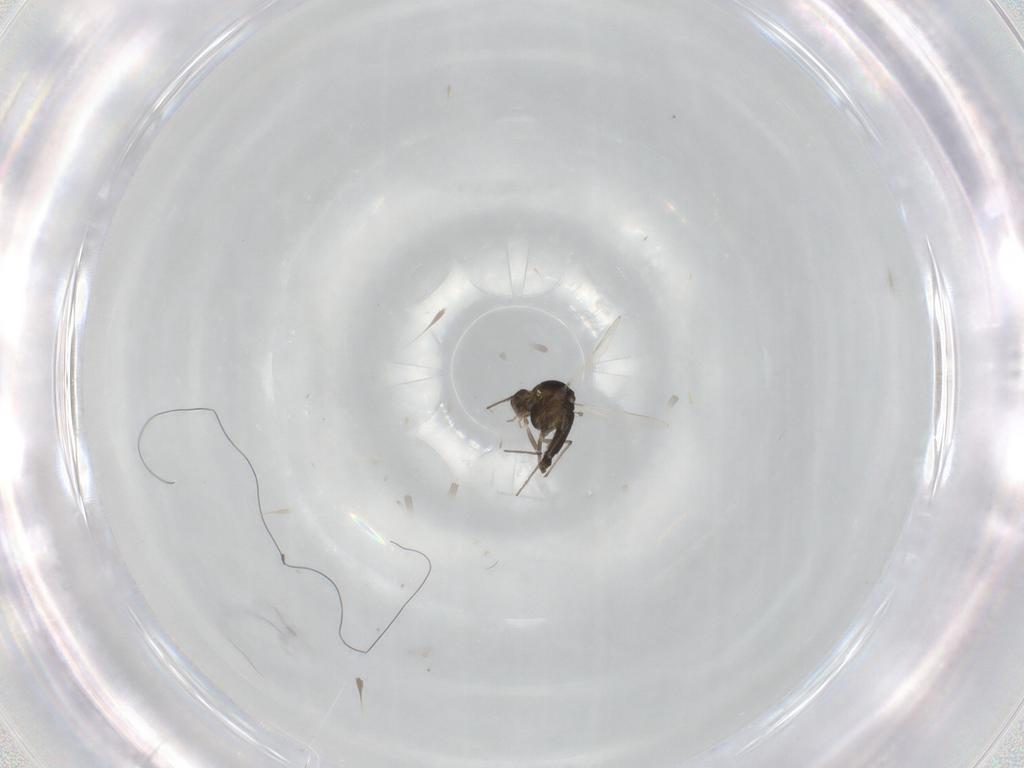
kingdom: Animalia
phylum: Arthropoda
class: Insecta
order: Diptera
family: Chironomidae
